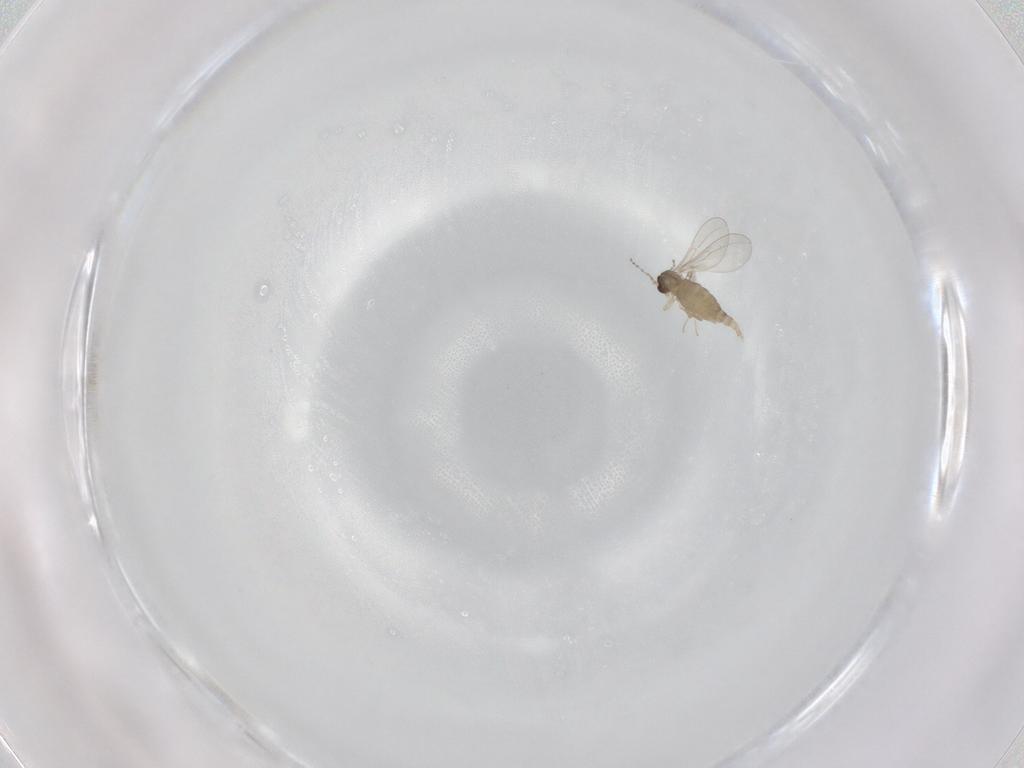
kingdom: Animalia
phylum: Arthropoda
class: Insecta
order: Diptera
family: Cecidomyiidae
